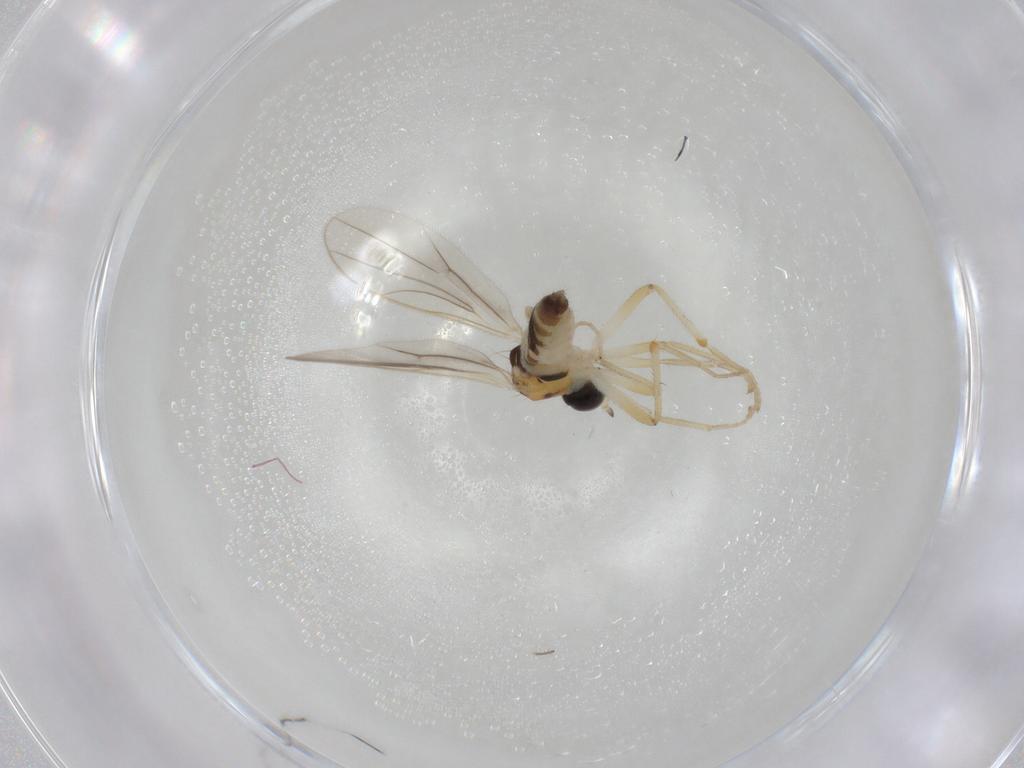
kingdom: Animalia
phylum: Arthropoda
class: Insecta
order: Diptera
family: Hybotidae
